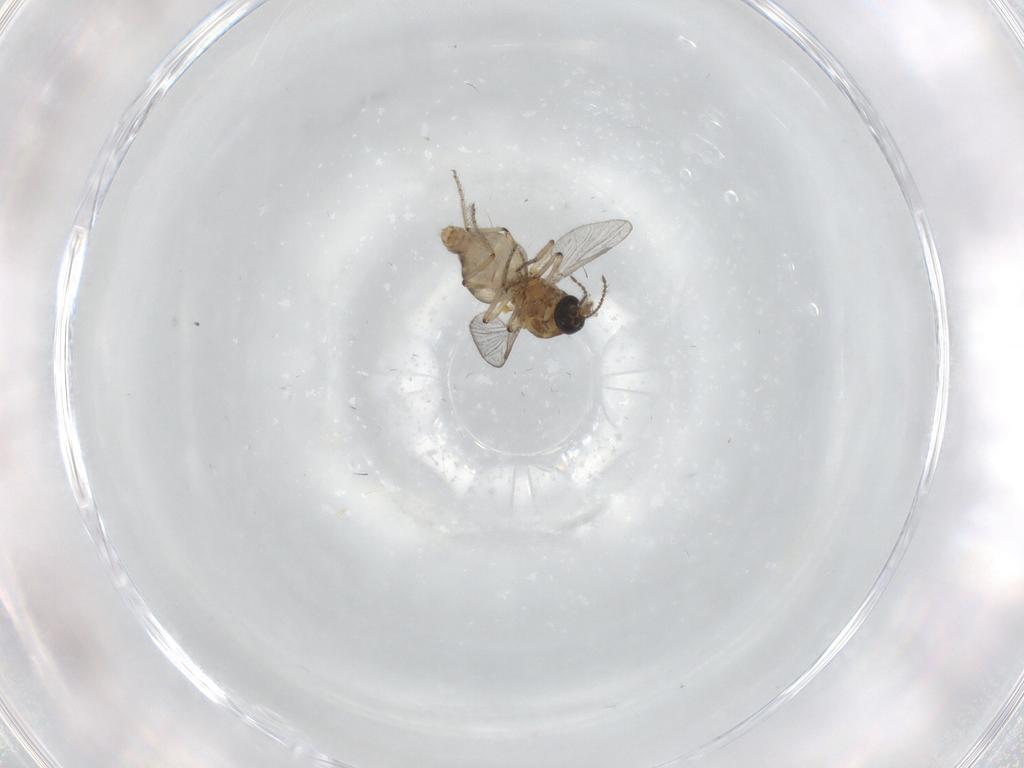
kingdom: Animalia
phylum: Arthropoda
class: Insecta
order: Diptera
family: Ceratopogonidae
